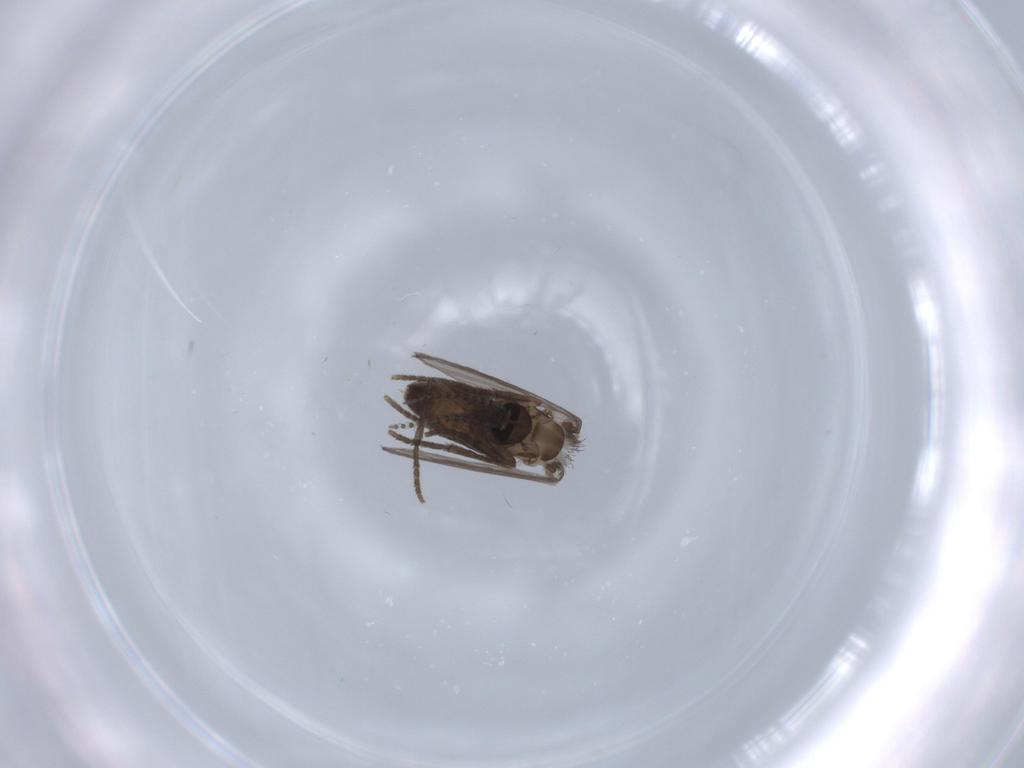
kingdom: Animalia
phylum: Arthropoda
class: Insecta
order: Diptera
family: Psychodidae
